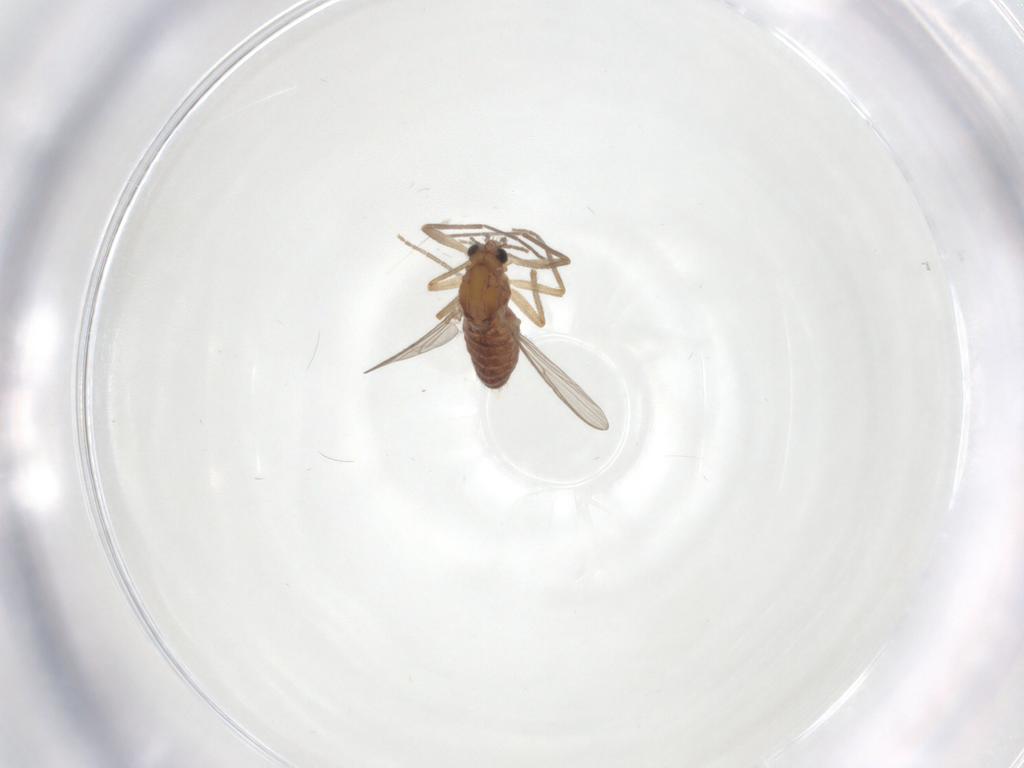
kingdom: Animalia
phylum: Arthropoda
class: Insecta
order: Diptera
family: Chironomidae
